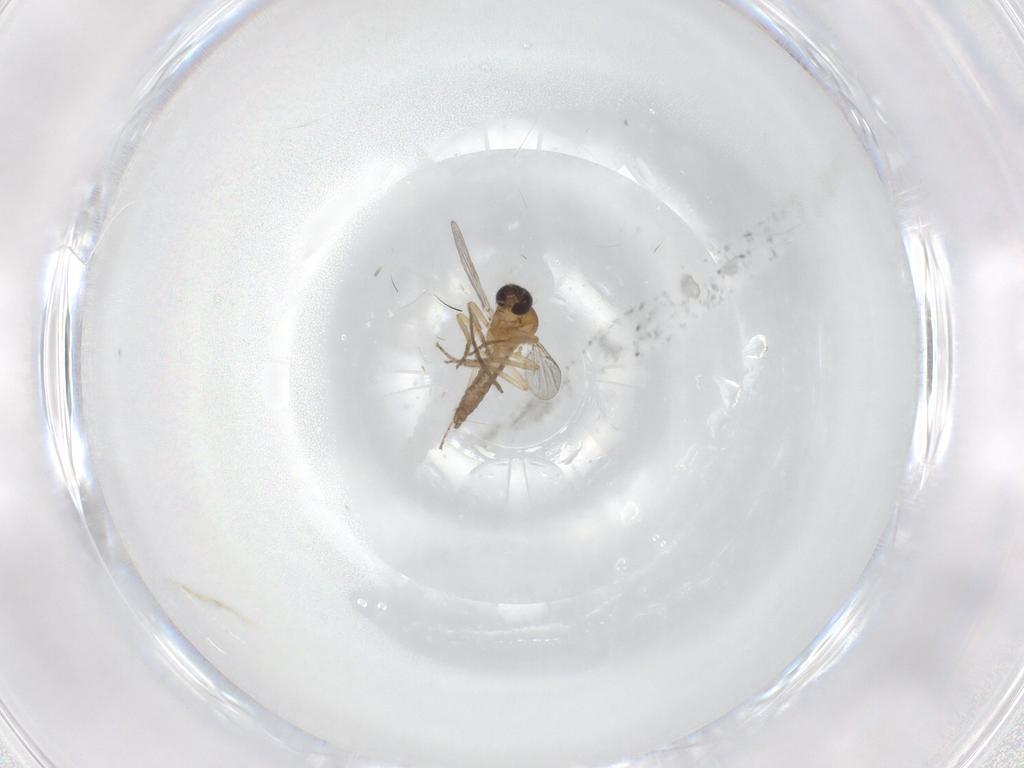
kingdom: Animalia
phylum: Arthropoda
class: Insecta
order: Diptera
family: Ceratopogonidae
